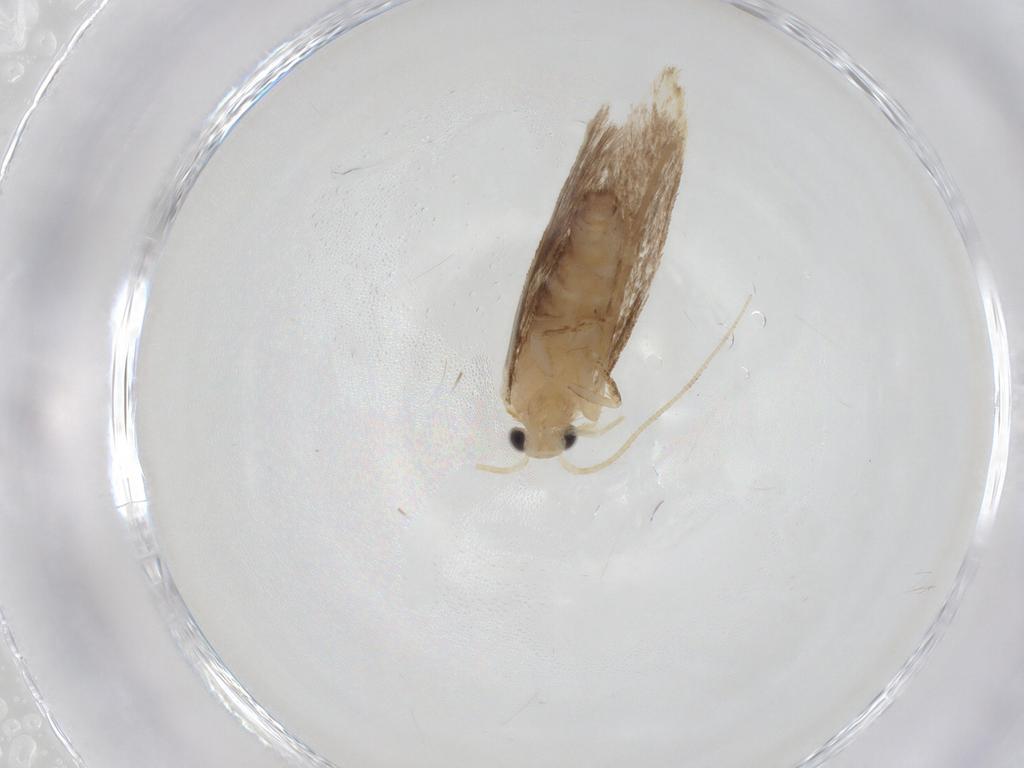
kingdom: Animalia
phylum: Arthropoda
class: Insecta
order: Lepidoptera
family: Dryadaulidae
